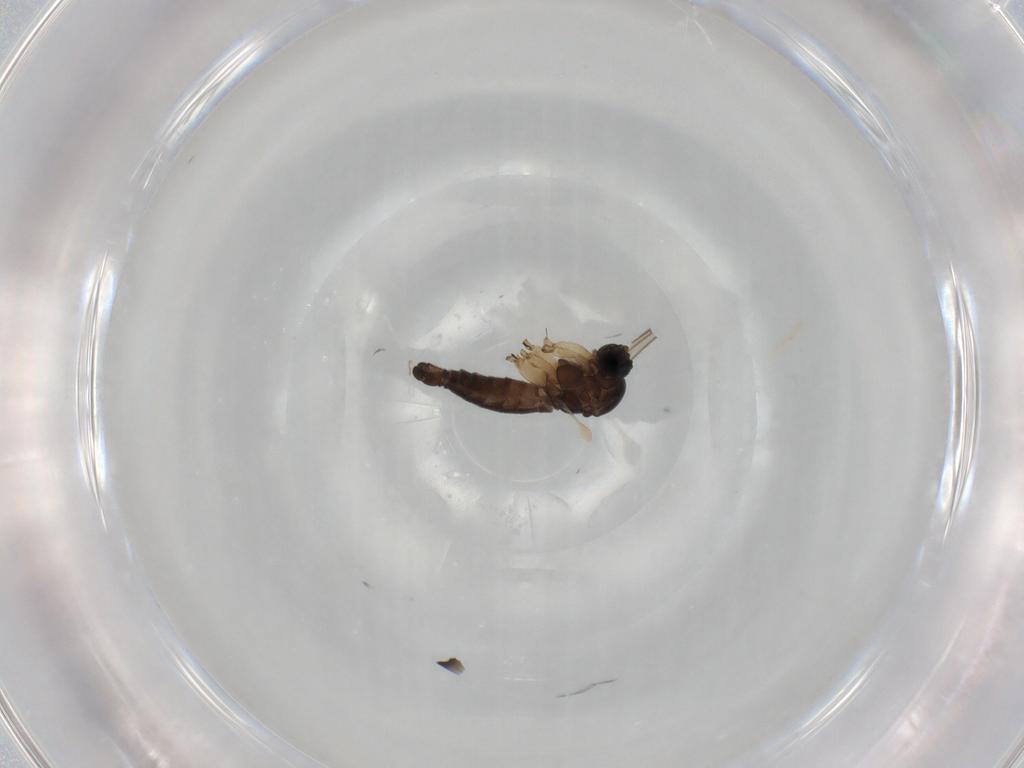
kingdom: Animalia
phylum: Arthropoda
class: Insecta
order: Diptera
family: Sciaridae
